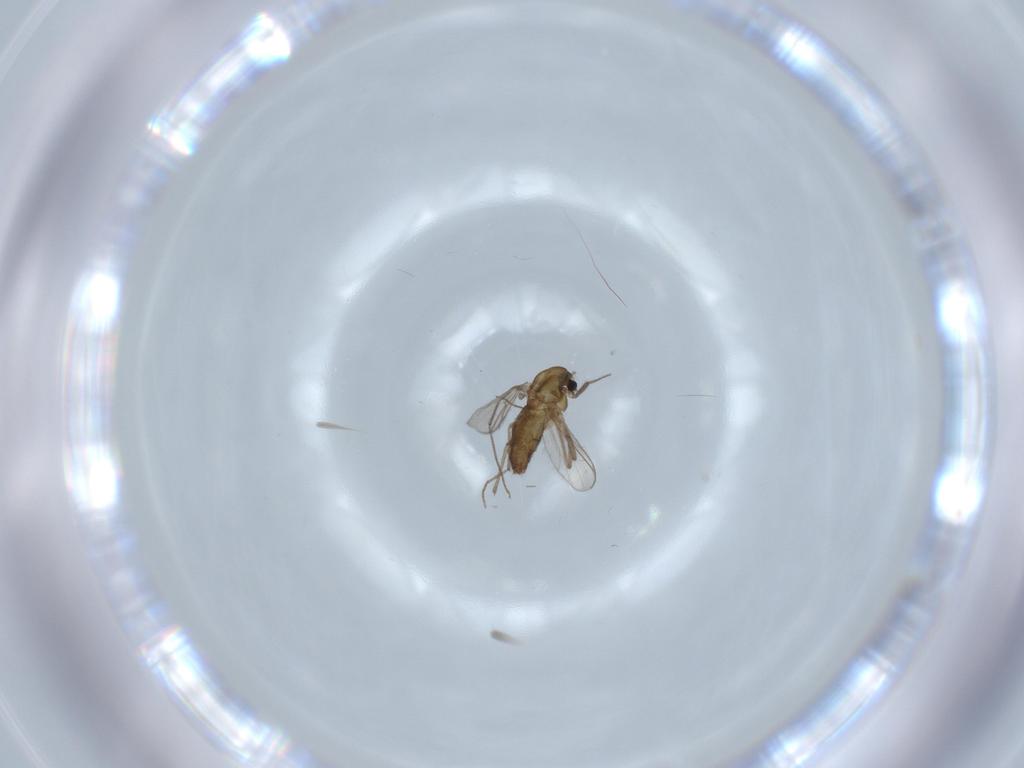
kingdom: Animalia
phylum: Arthropoda
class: Insecta
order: Diptera
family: Chironomidae
